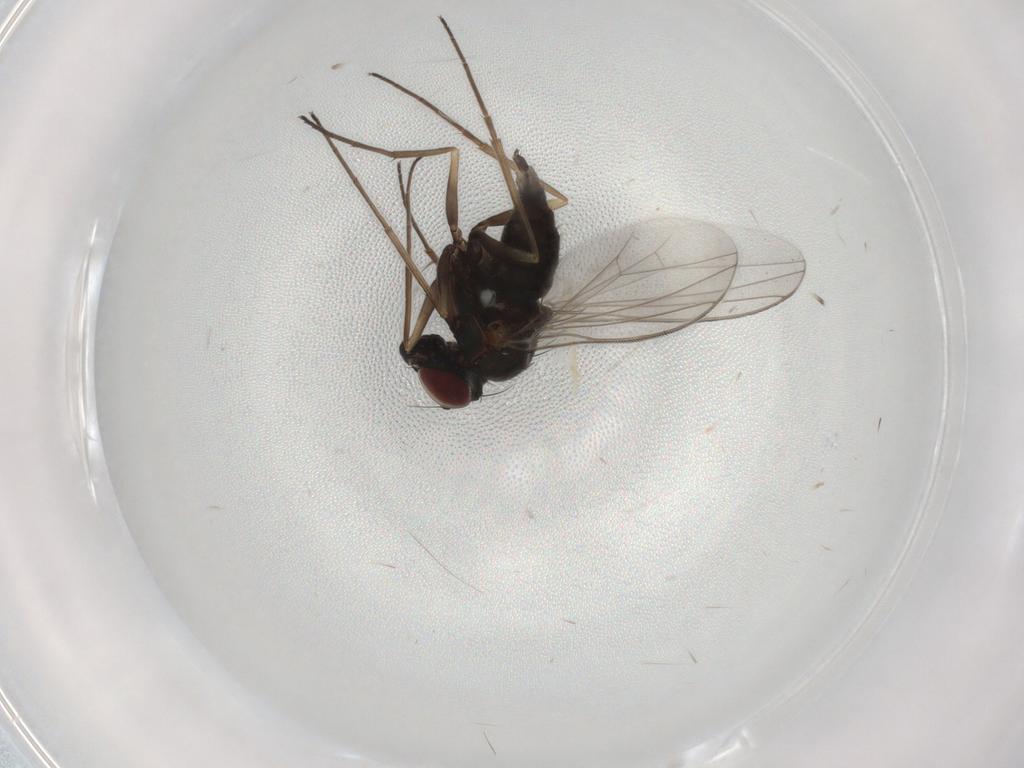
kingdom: Animalia
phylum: Arthropoda
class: Insecta
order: Diptera
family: Dolichopodidae
